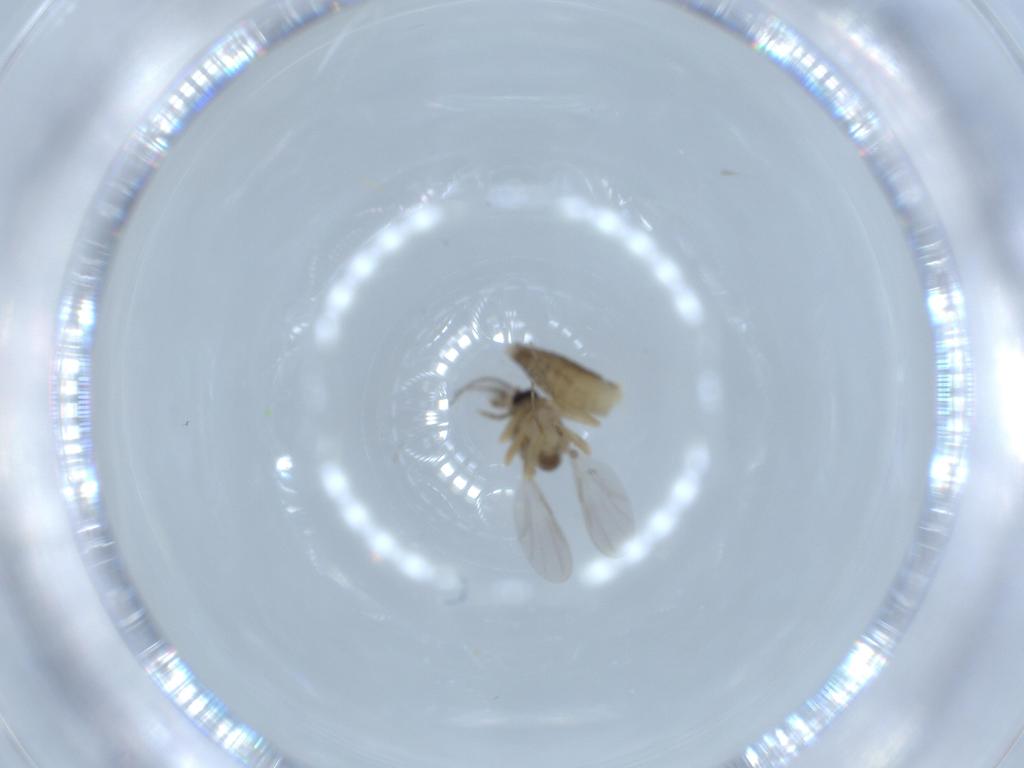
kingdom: Animalia
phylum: Arthropoda
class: Insecta
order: Diptera
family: Ceratopogonidae
